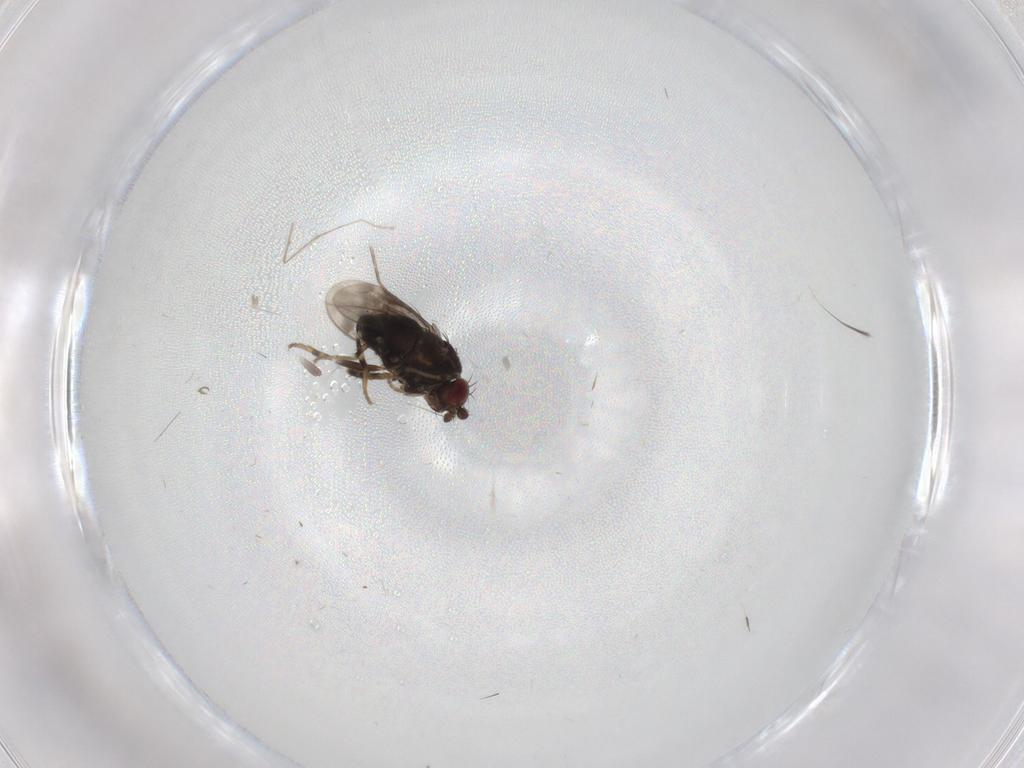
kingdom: Animalia
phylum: Arthropoda
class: Insecta
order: Diptera
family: Sphaeroceridae
